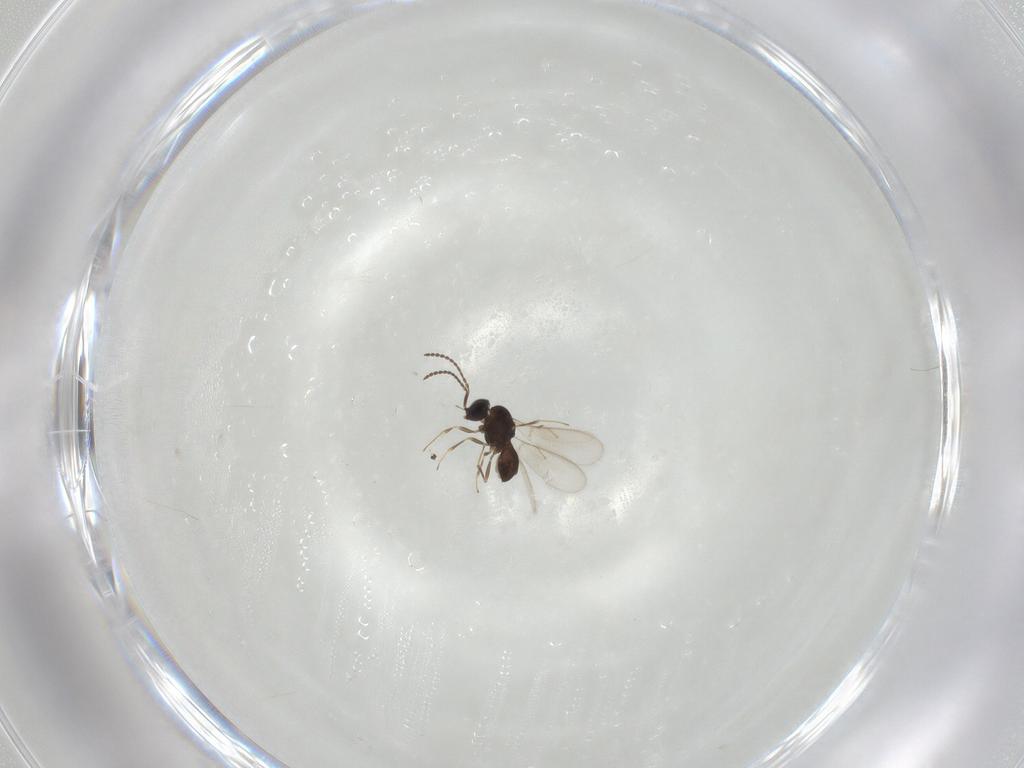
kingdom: Animalia
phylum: Arthropoda
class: Insecta
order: Hymenoptera
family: Scelionidae
